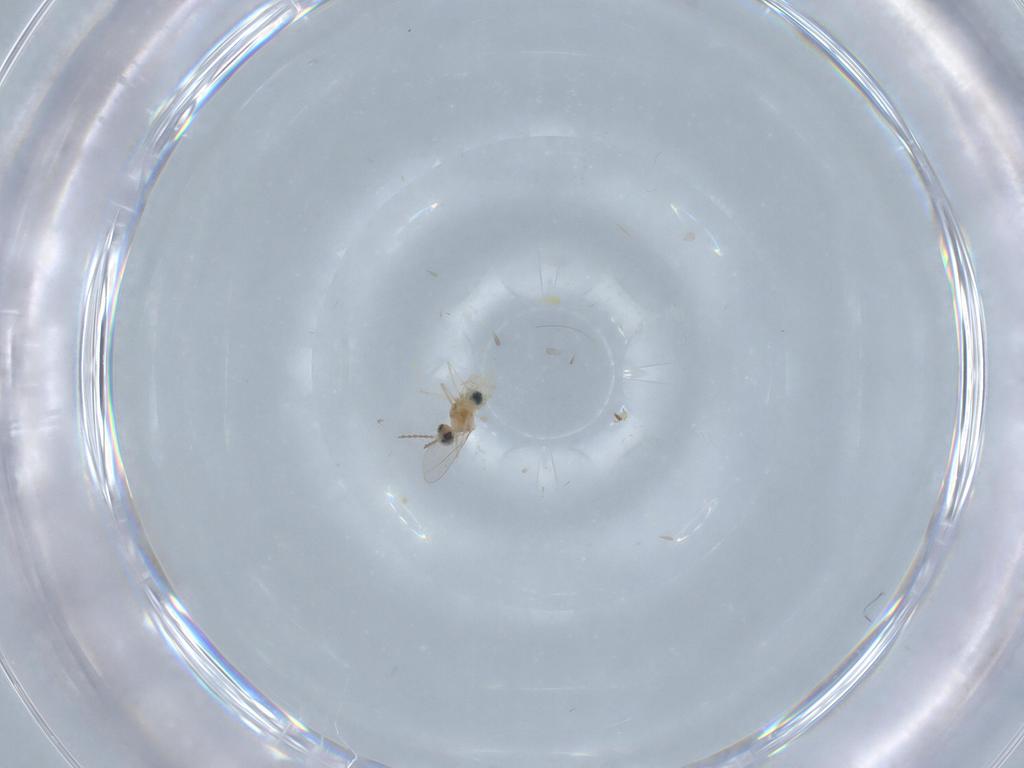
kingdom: Animalia
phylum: Arthropoda
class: Insecta
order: Diptera
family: Cecidomyiidae
